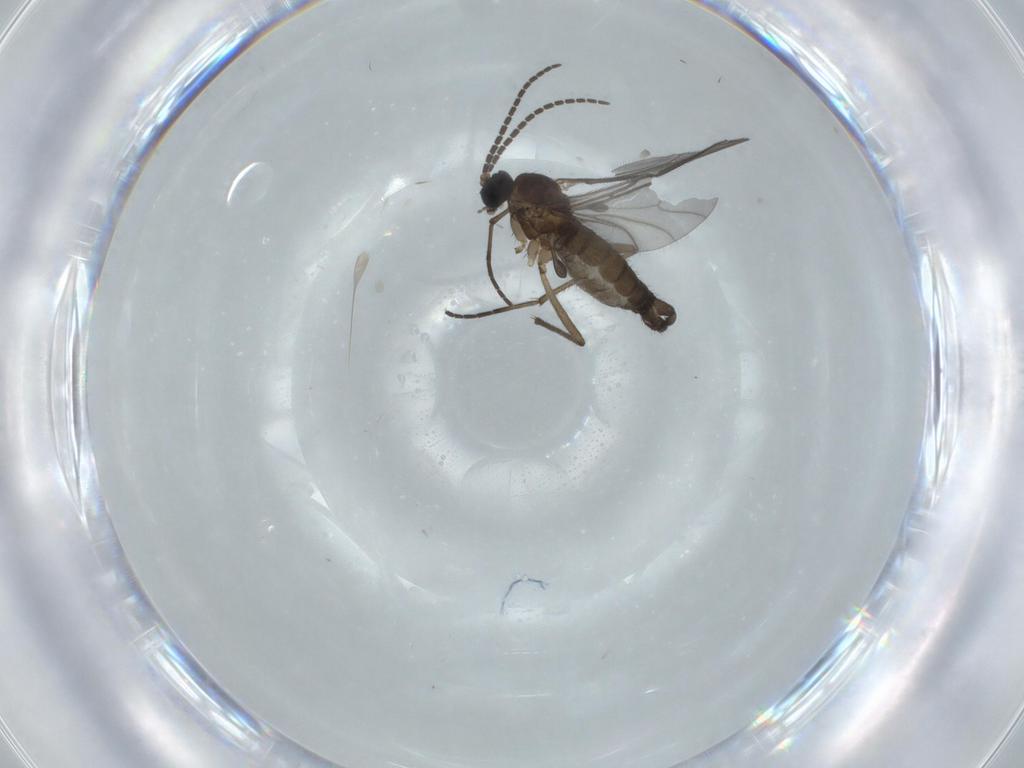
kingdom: Animalia
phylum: Arthropoda
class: Insecta
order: Diptera
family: Sciaridae
